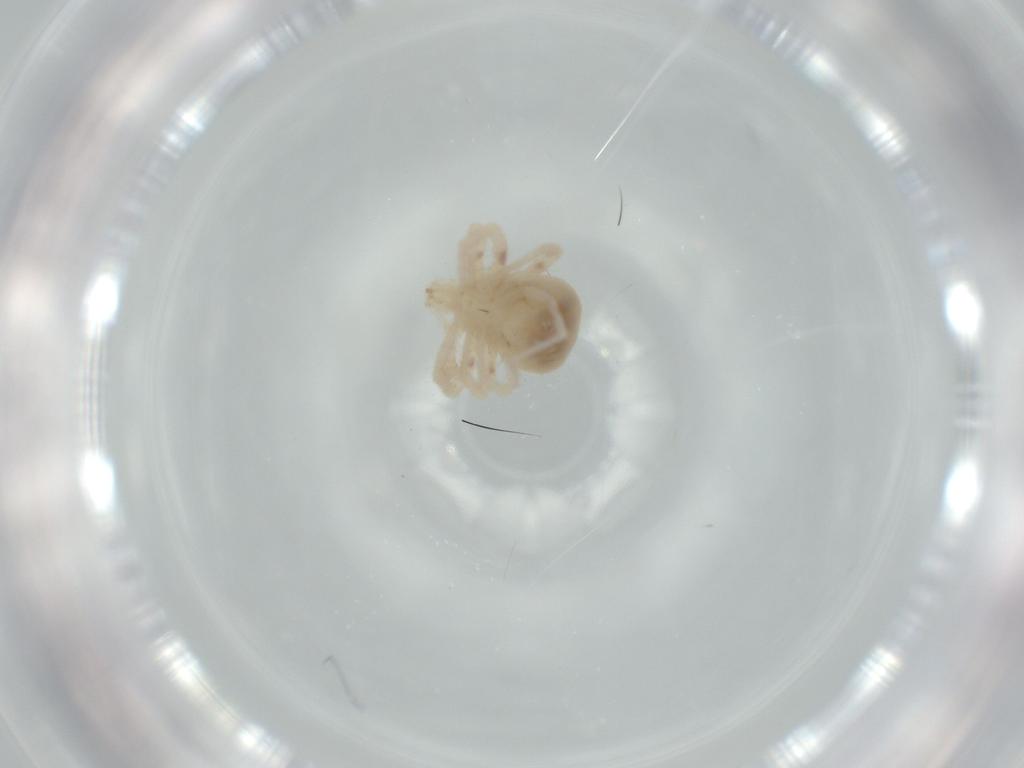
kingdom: Animalia
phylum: Arthropoda
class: Arachnida
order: Trombidiformes
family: Anystidae
